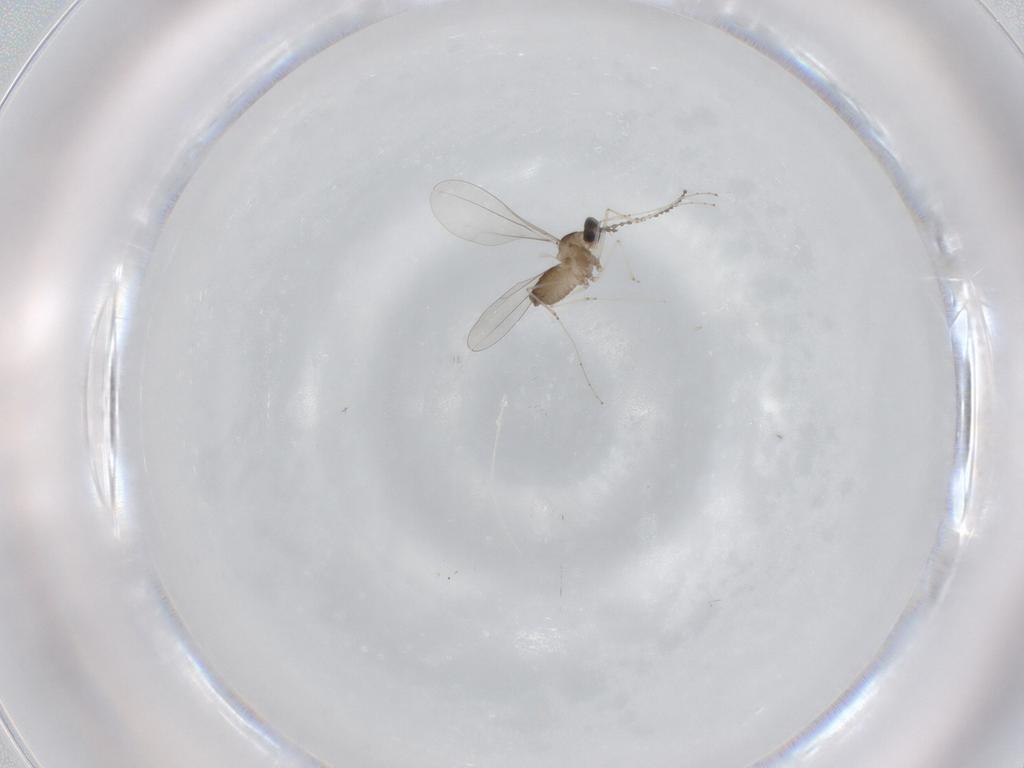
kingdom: Animalia
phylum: Arthropoda
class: Insecta
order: Diptera
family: Cecidomyiidae
